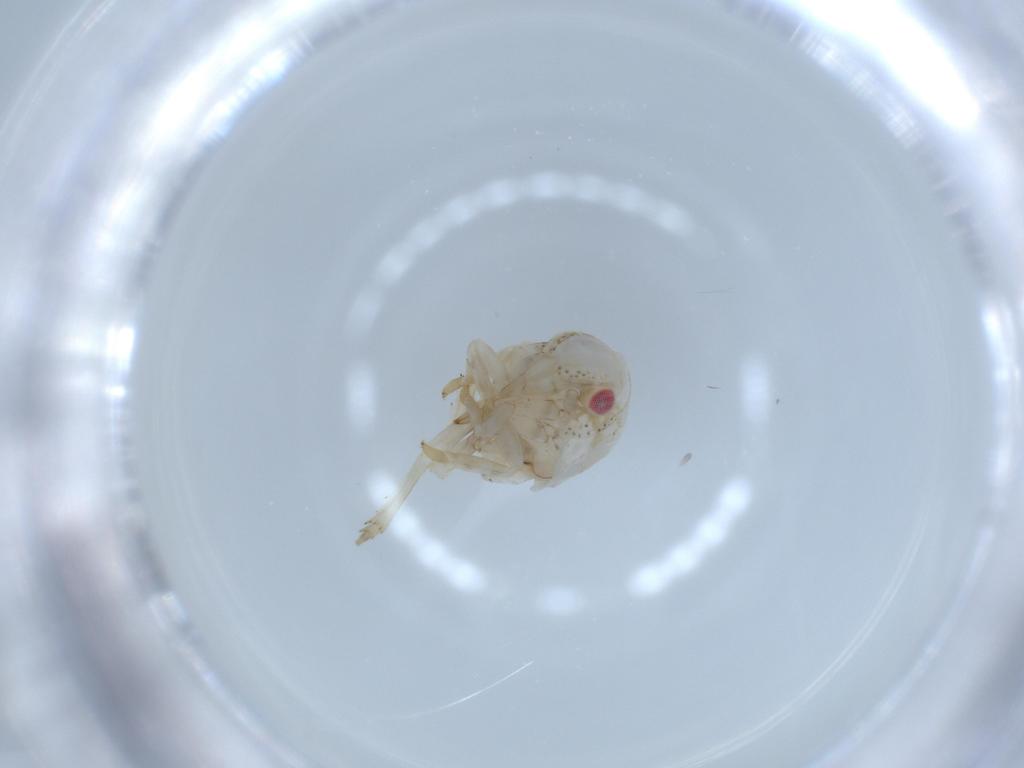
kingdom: Animalia
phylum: Arthropoda
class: Insecta
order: Hemiptera
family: Acanaloniidae
